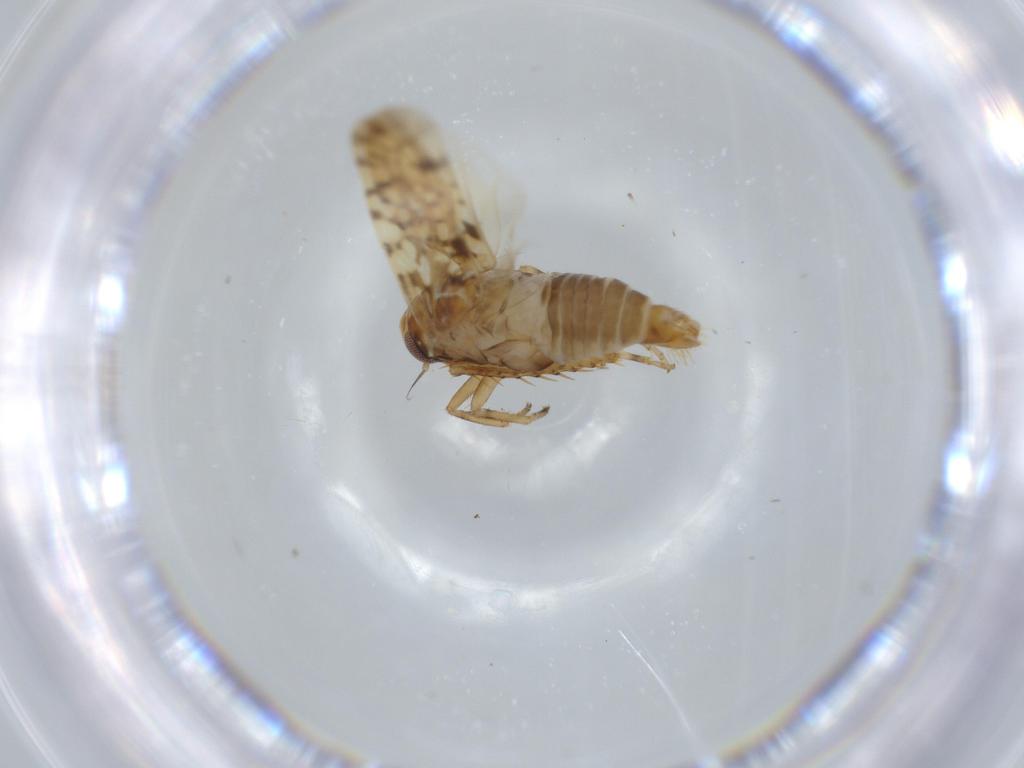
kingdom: Animalia
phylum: Arthropoda
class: Insecta
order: Hemiptera
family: Cicadellidae
